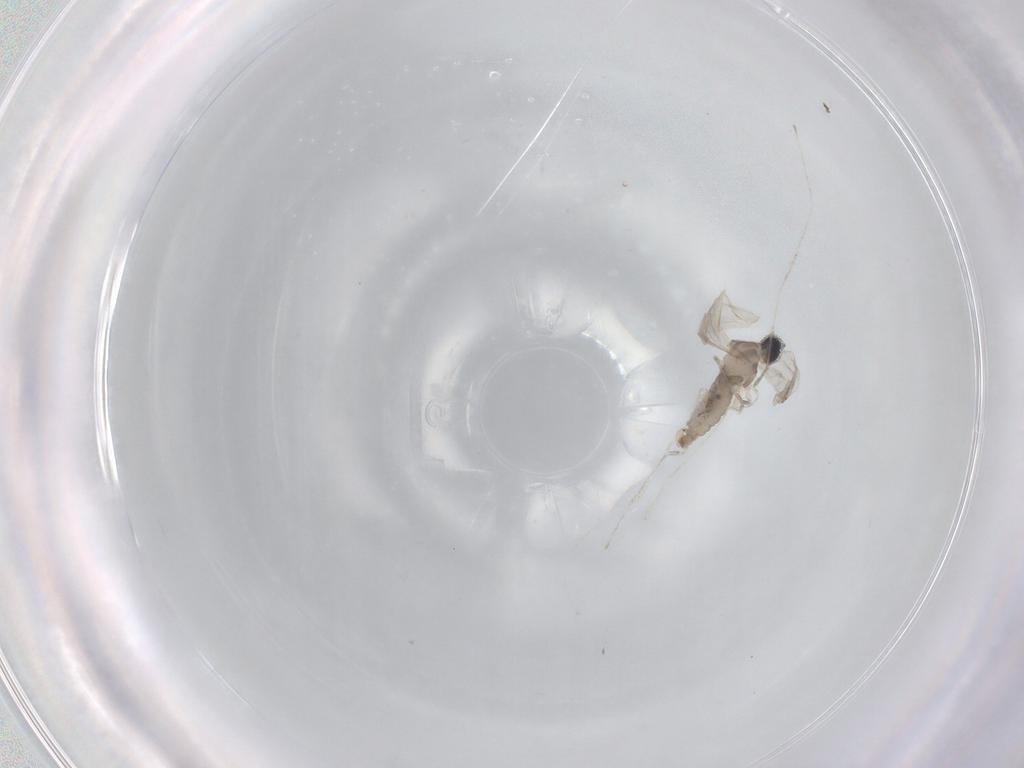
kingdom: Animalia
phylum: Arthropoda
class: Insecta
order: Diptera
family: Cecidomyiidae
